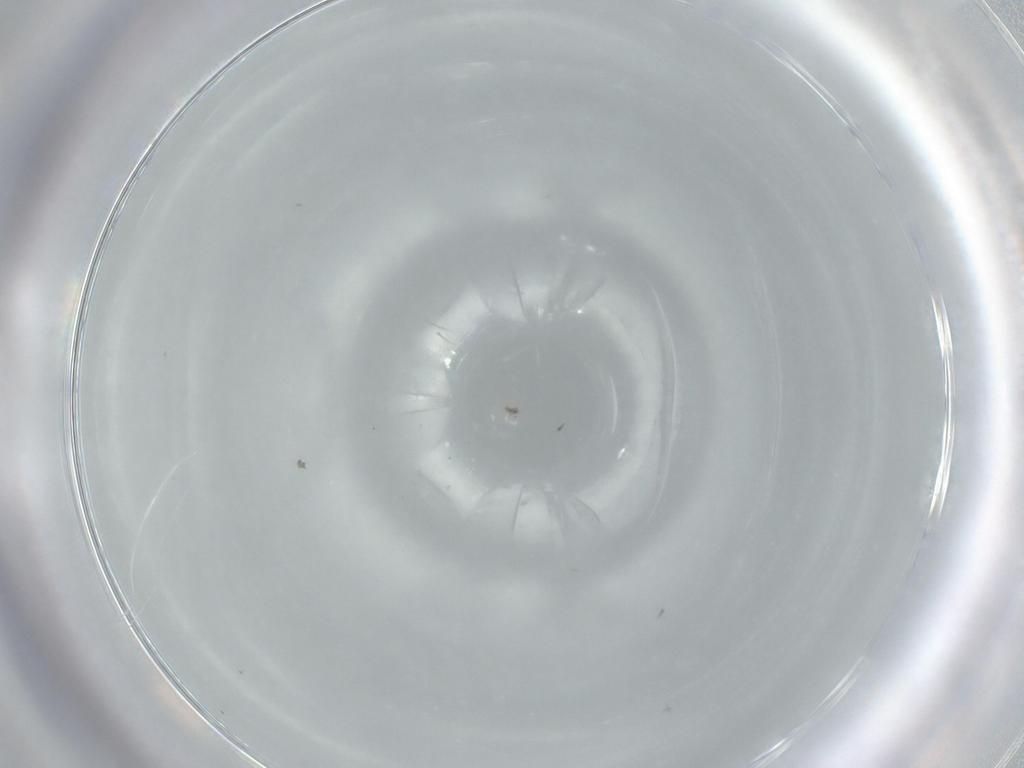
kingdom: Animalia
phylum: Arthropoda
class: Insecta
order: Diptera
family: Sciaridae
